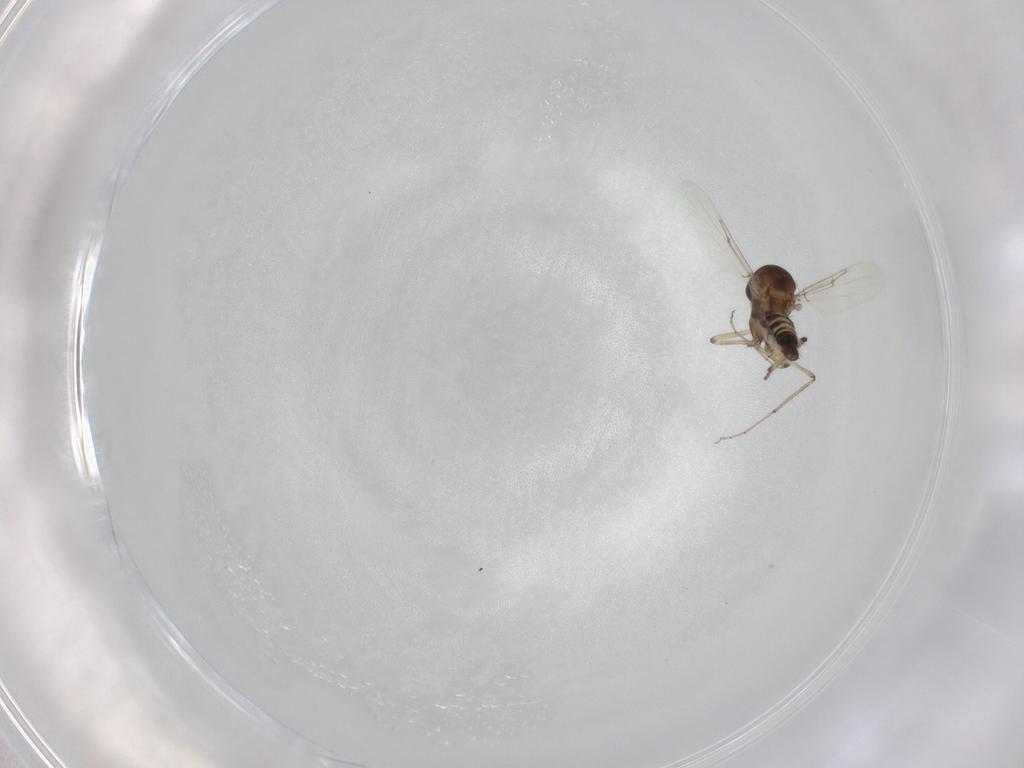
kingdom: Animalia
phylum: Arthropoda
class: Insecta
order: Diptera
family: Ceratopogonidae
